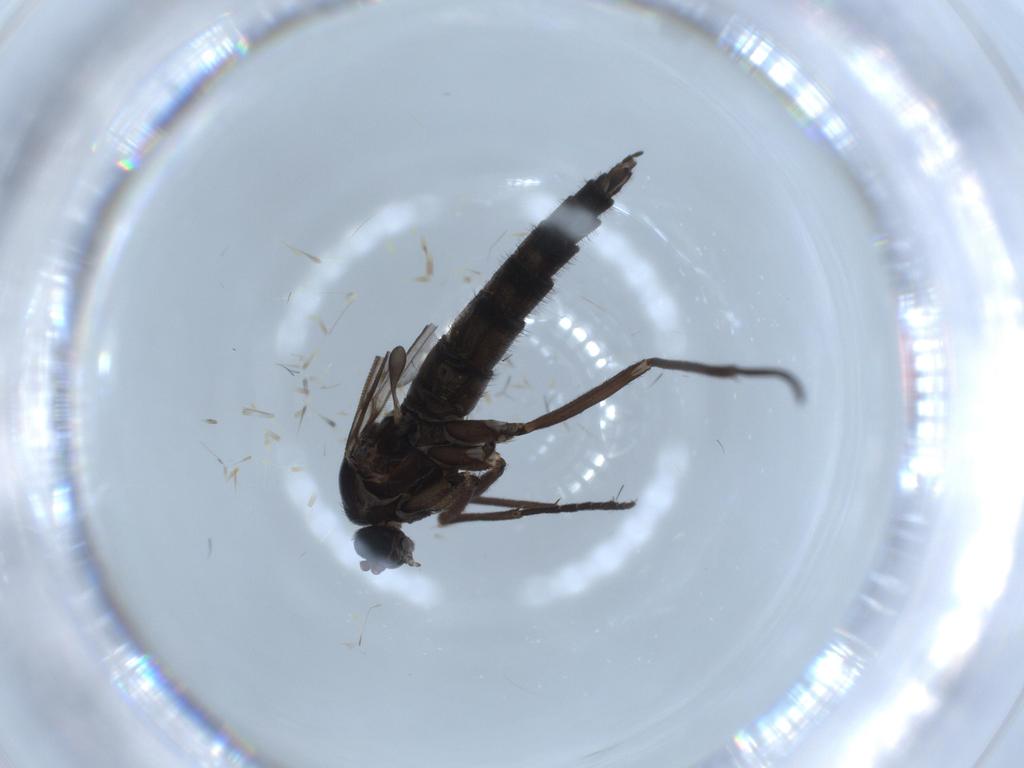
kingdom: Animalia
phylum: Arthropoda
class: Insecta
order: Diptera
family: Sciaridae
